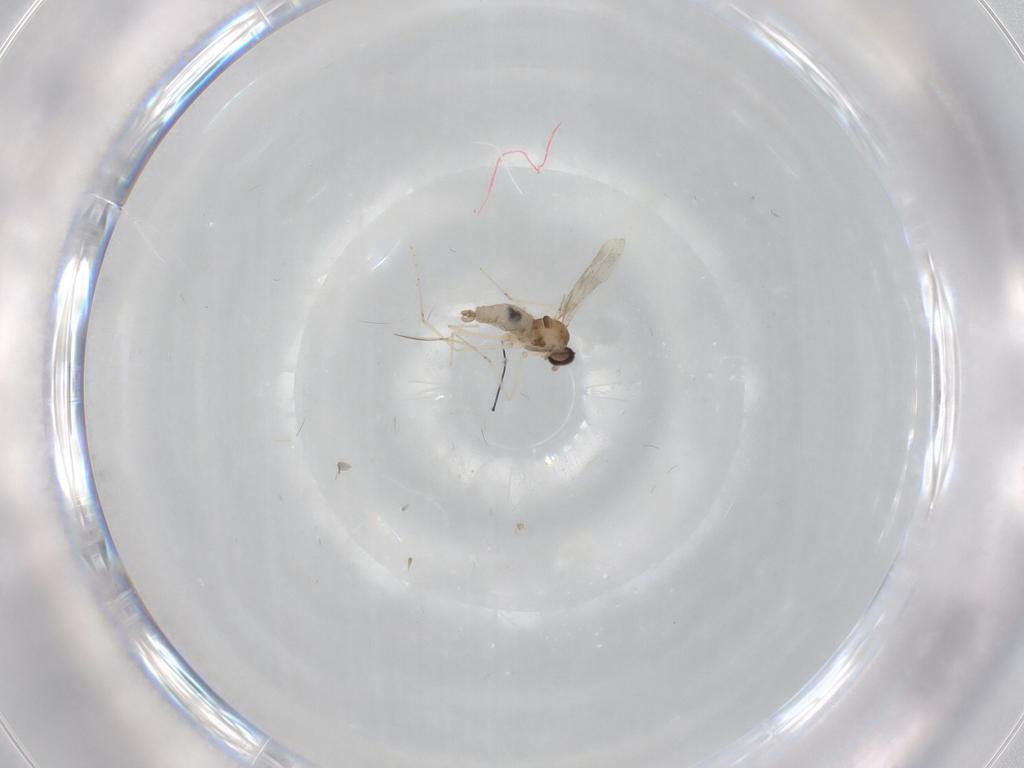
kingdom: Animalia
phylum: Arthropoda
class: Insecta
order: Diptera
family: Cecidomyiidae
